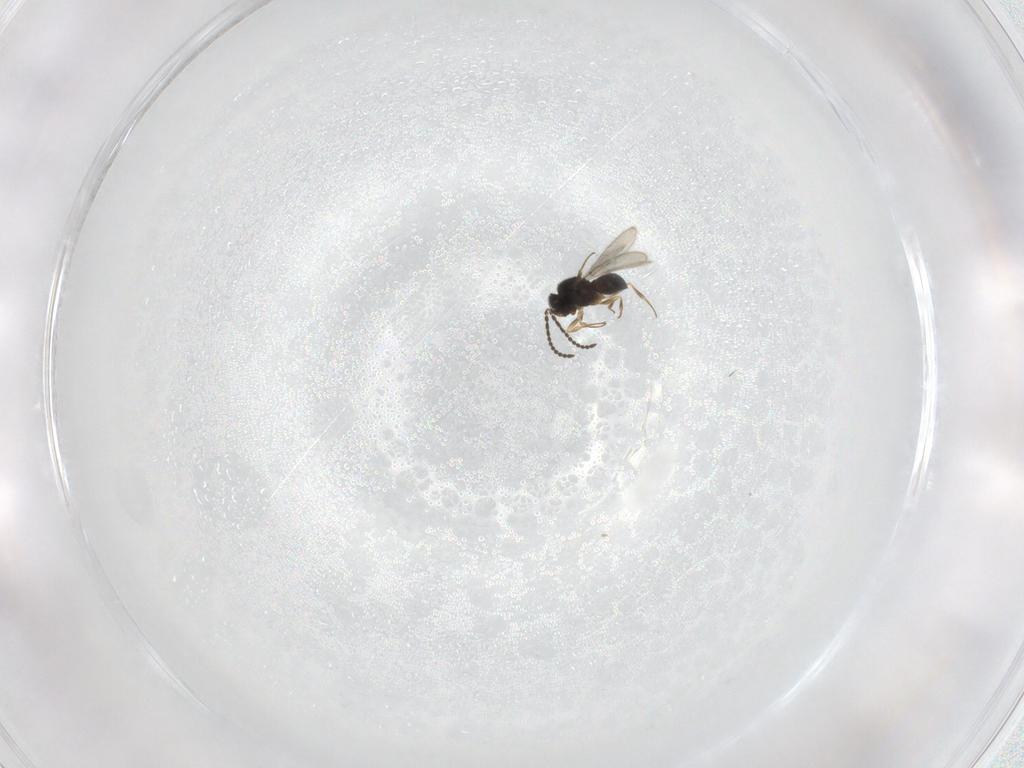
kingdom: Animalia
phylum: Arthropoda
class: Insecta
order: Hymenoptera
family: Scelionidae
